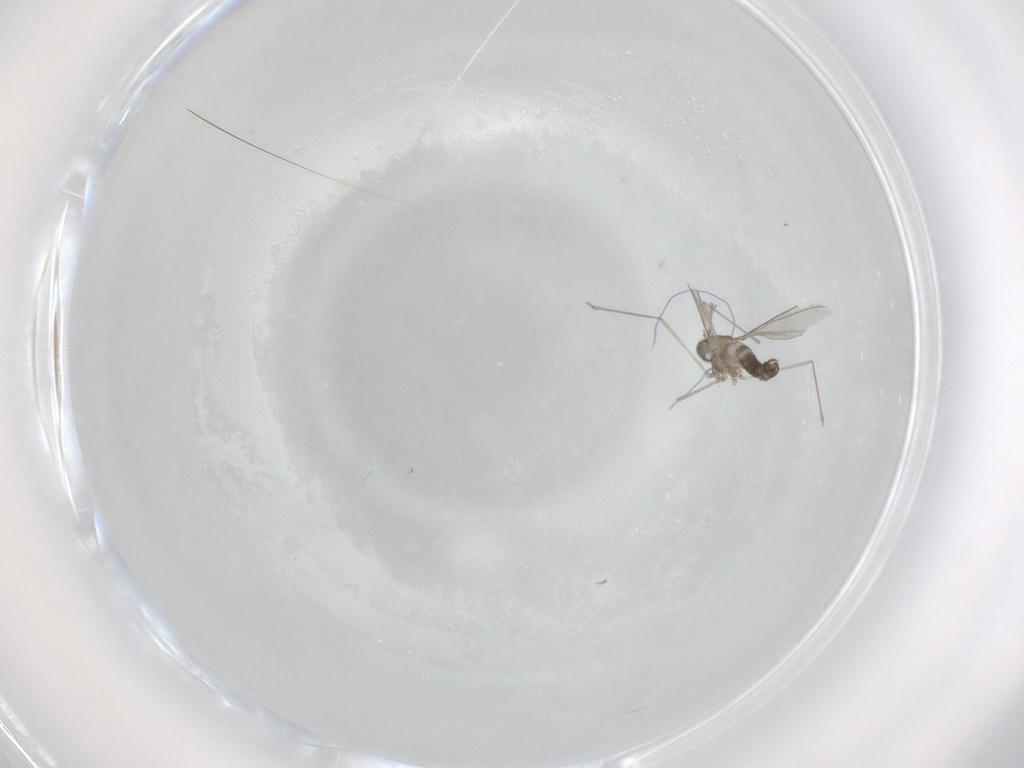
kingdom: Animalia
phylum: Arthropoda
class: Insecta
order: Diptera
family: Cecidomyiidae
